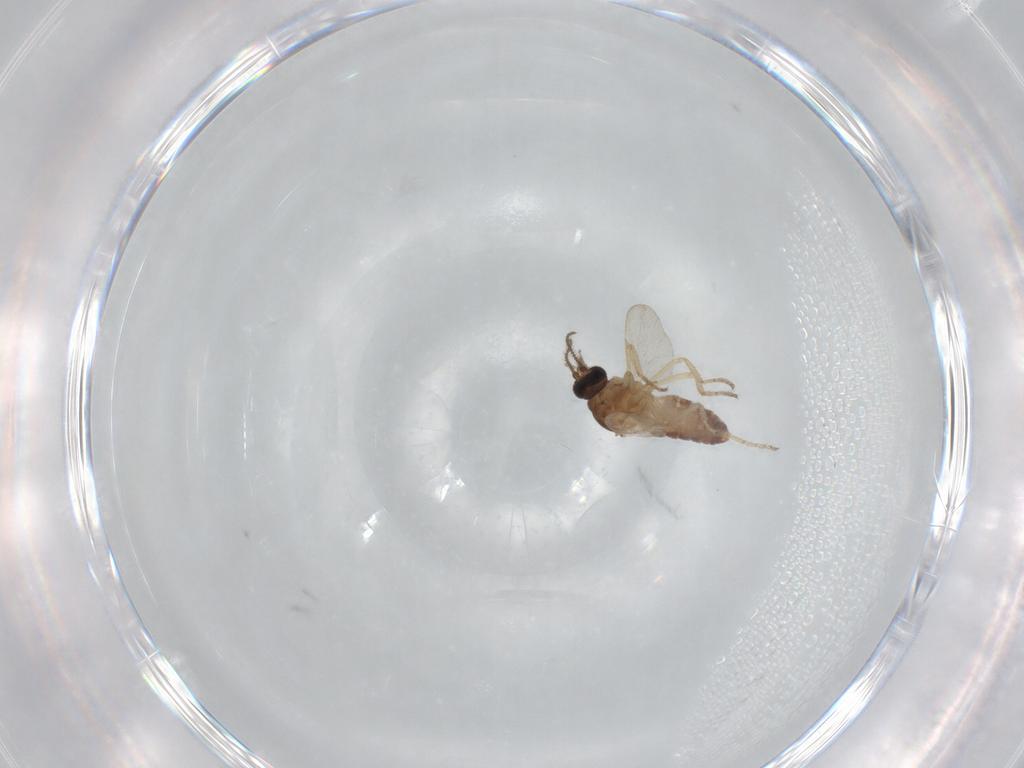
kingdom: Animalia
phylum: Arthropoda
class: Insecta
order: Diptera
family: Ceratopogonidae
